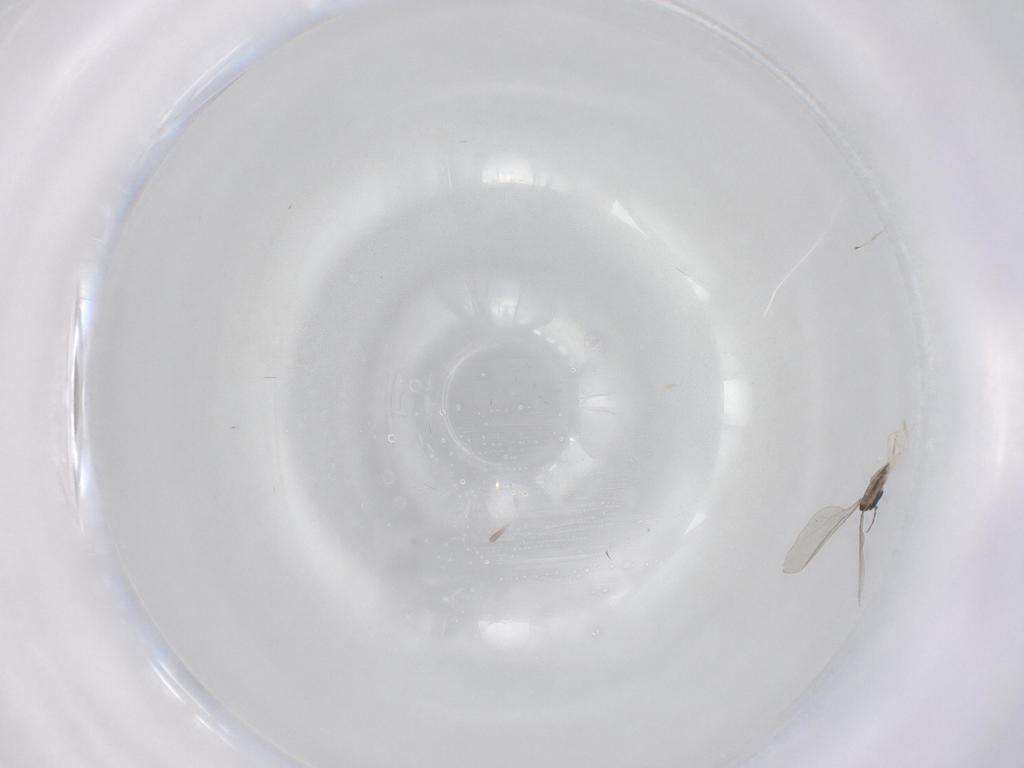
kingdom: Animalia
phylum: Arthropoda
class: Insecta
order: Diptera
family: Cecidomyiidae
